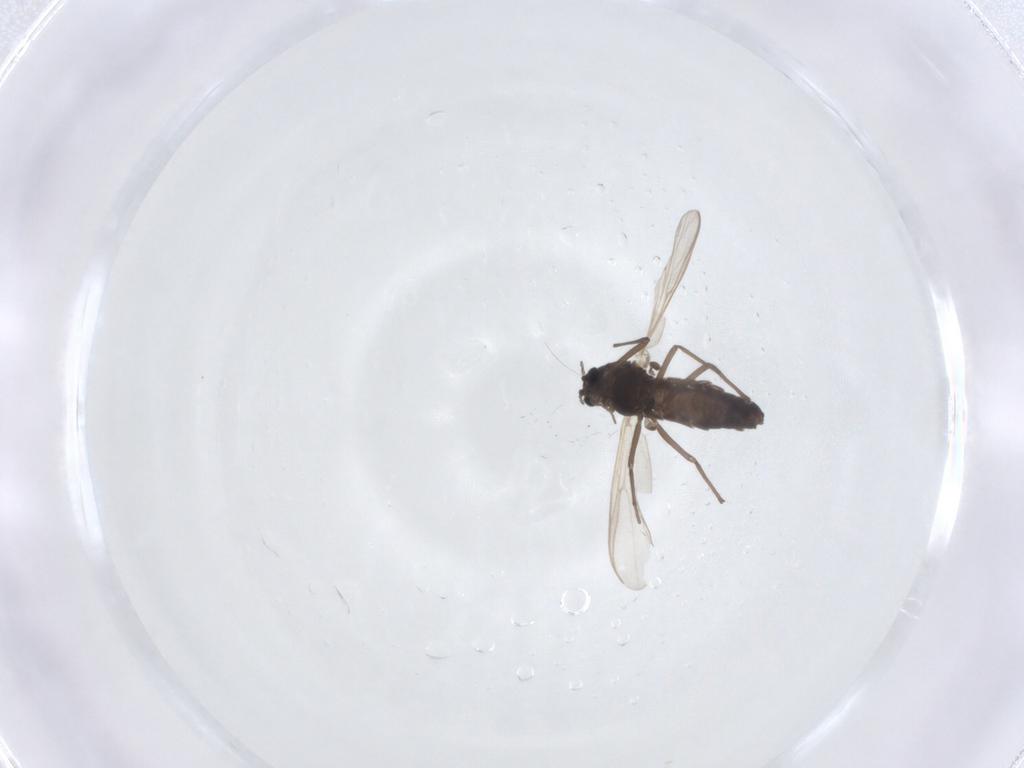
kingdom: Animalia
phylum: Arthropoda
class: Insecta
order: Diptera
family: Chironomidae
